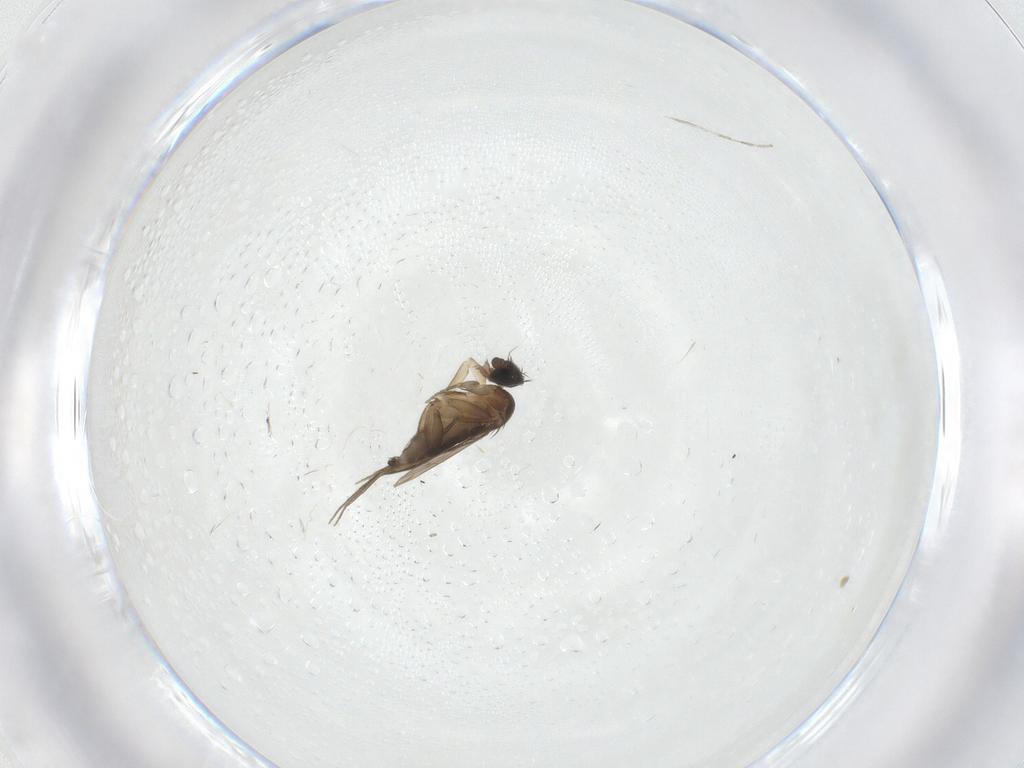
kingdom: Animalia
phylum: Arthropoda
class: Insecta
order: Diptera
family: Phoridae
